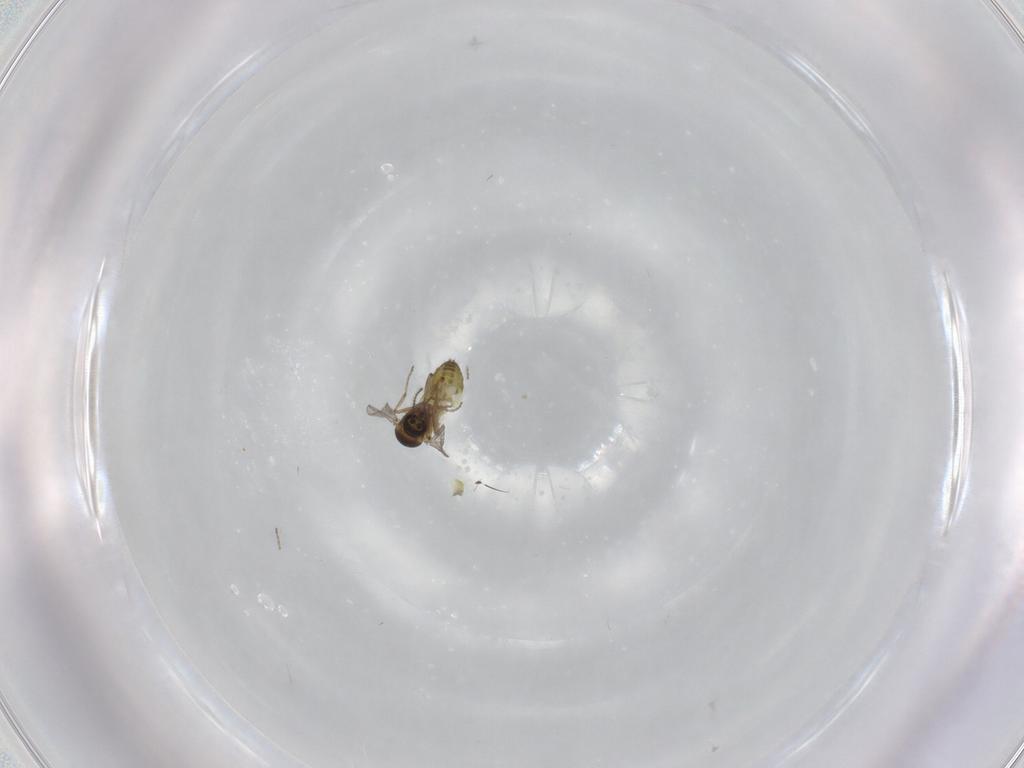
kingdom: Animalia
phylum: Arthropoda
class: Insecta
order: Diptera
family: Ceratopogonidae
